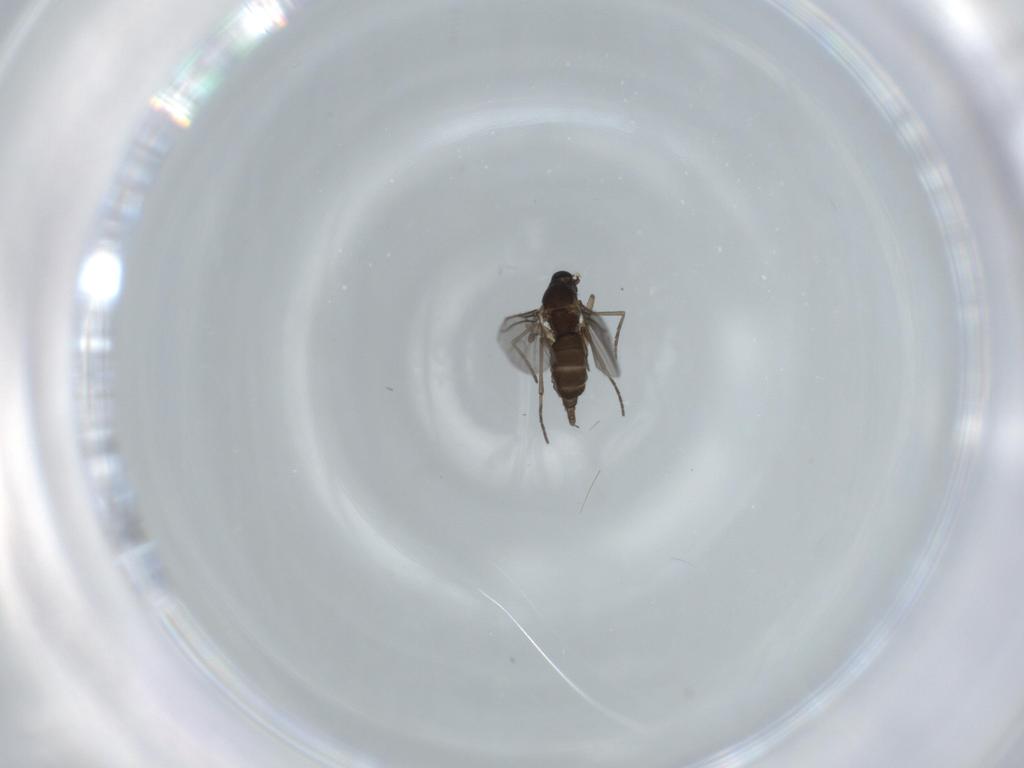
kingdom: Animalia
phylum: Arthropoda
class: Insecta
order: Diptera
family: Sciaridae
